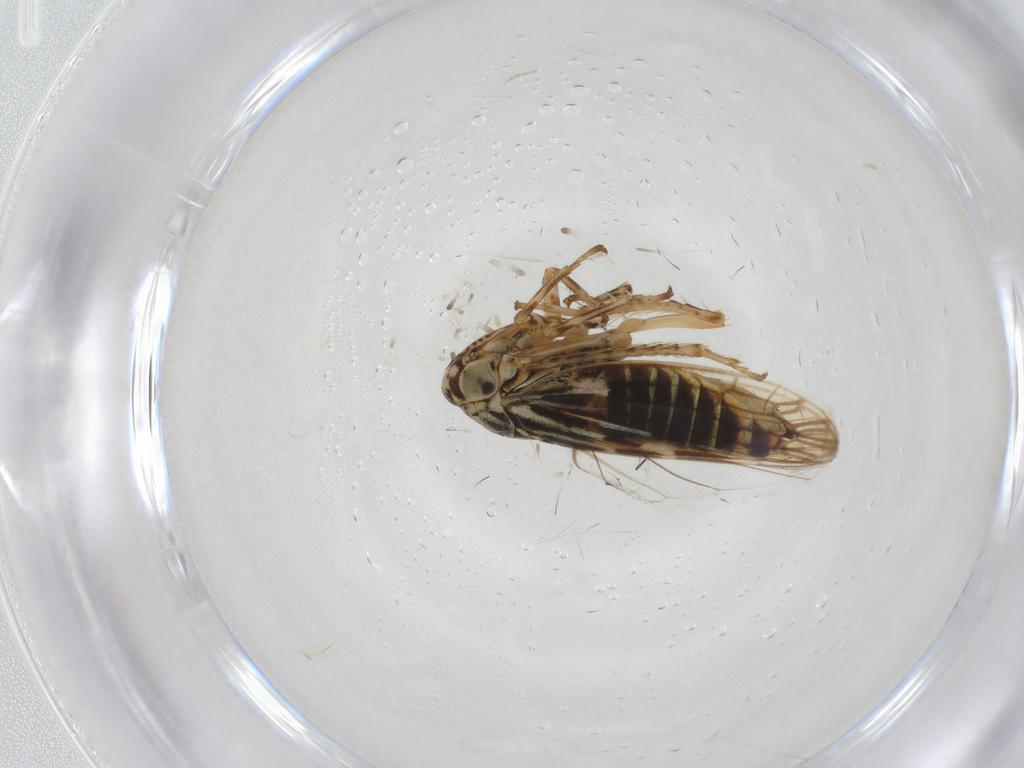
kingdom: Animalia
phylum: Arthropoda
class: Insecta
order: Hemiptera
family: Cicadellidae
